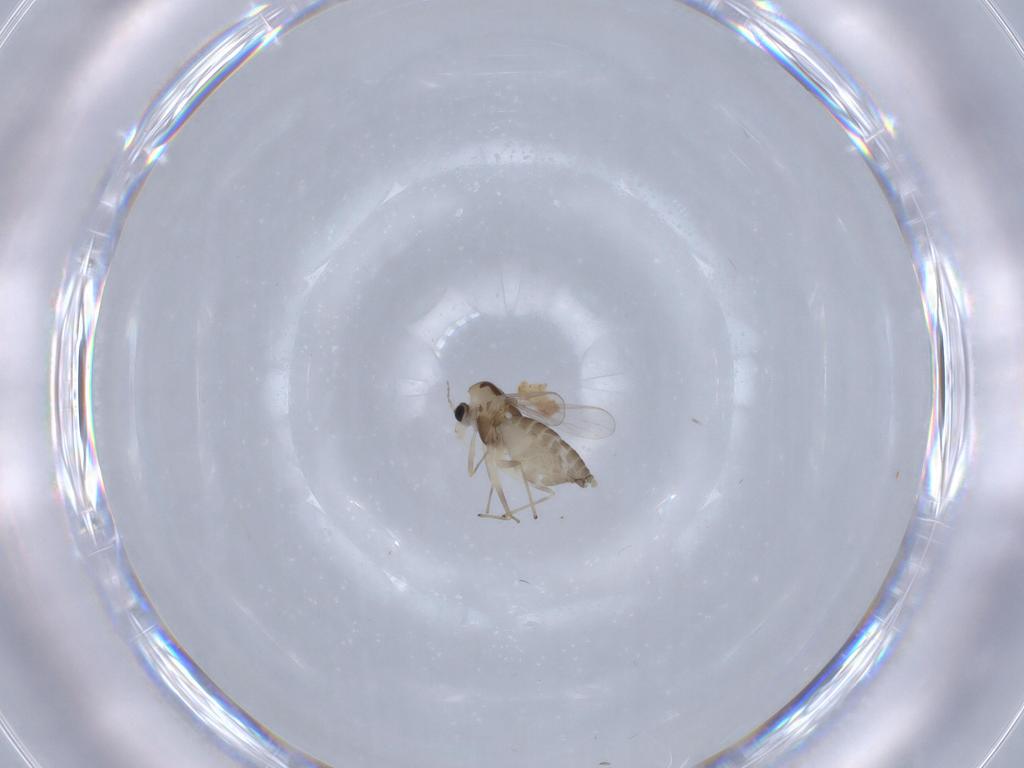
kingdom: Animalia
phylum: Arthropoda
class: Insecta
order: Diptera
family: Chironomidae
